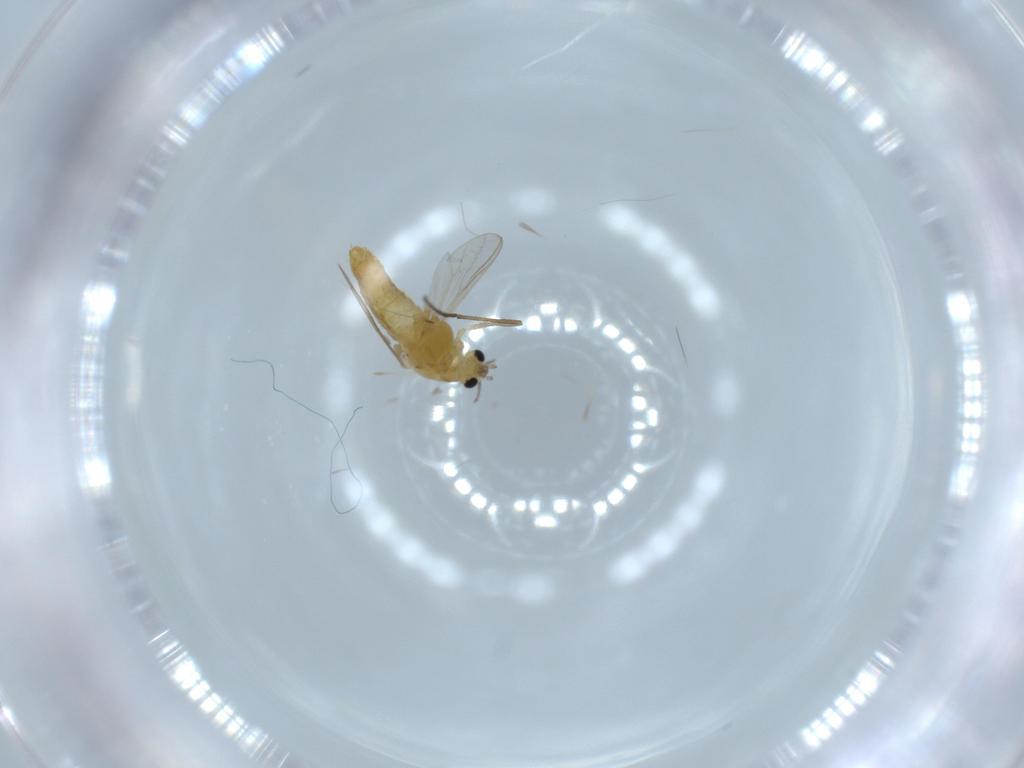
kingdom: Animalia
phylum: Arthropoda
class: Insecta
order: Diptera
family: Chironomidae
